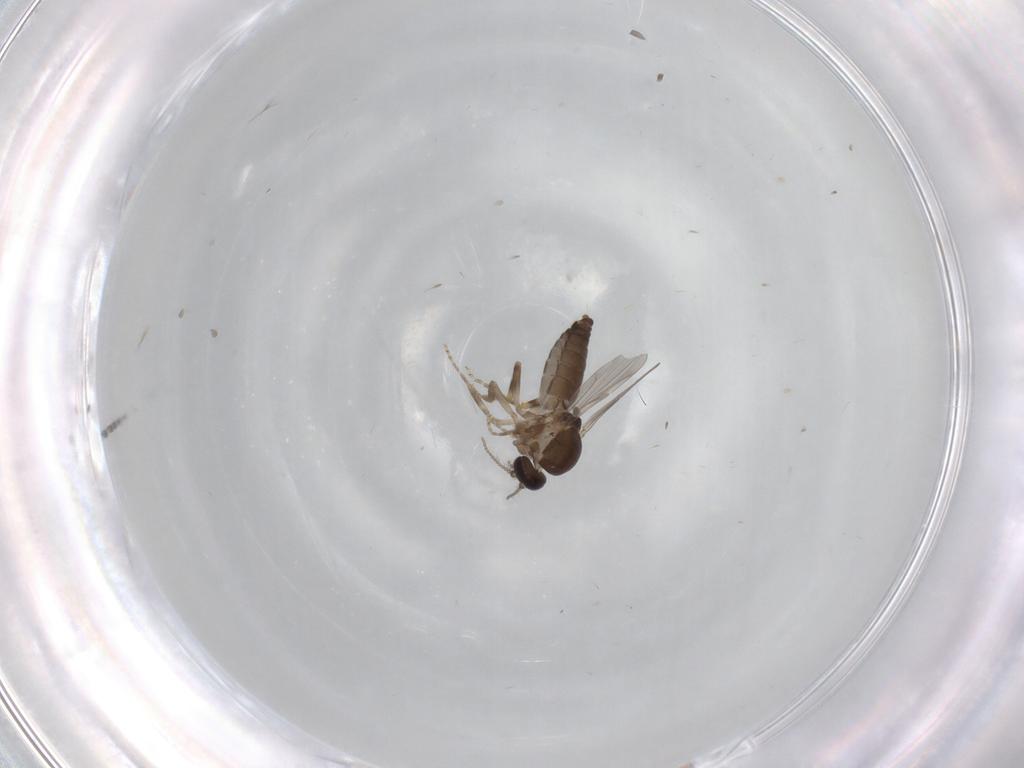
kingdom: Animalia
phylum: Arthropoda
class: Insecta
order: Diptera
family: Ceratopogonidae
